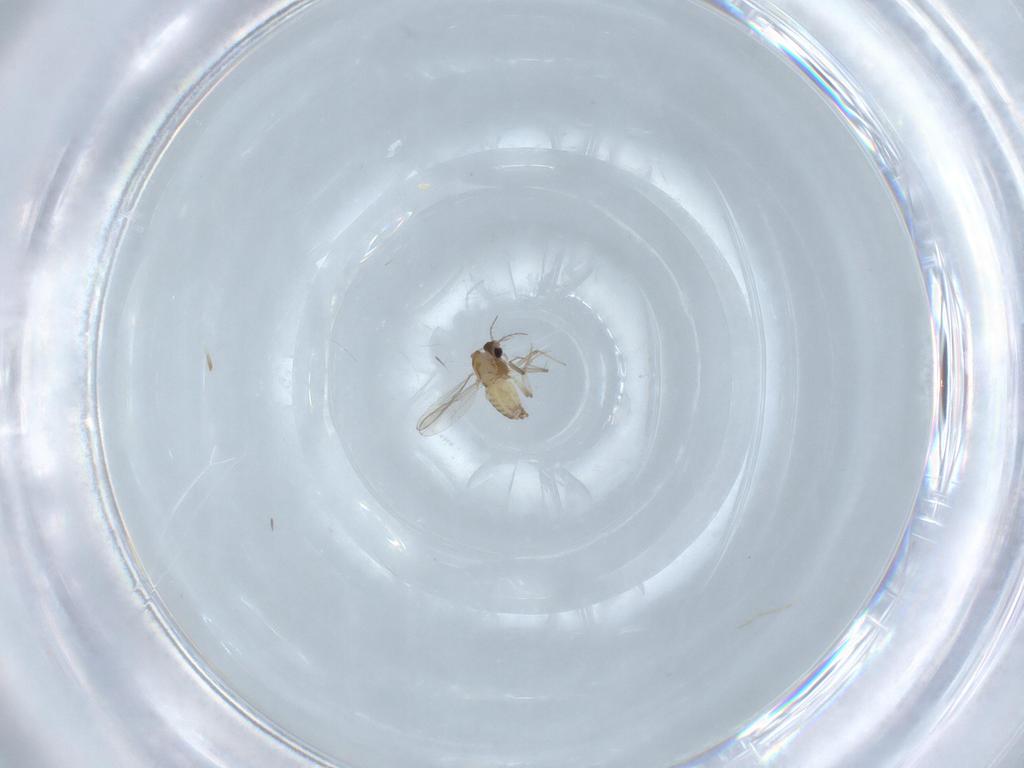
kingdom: Animalia
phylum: Arthropoda
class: Insecta
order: Diptera
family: Chironomidae
